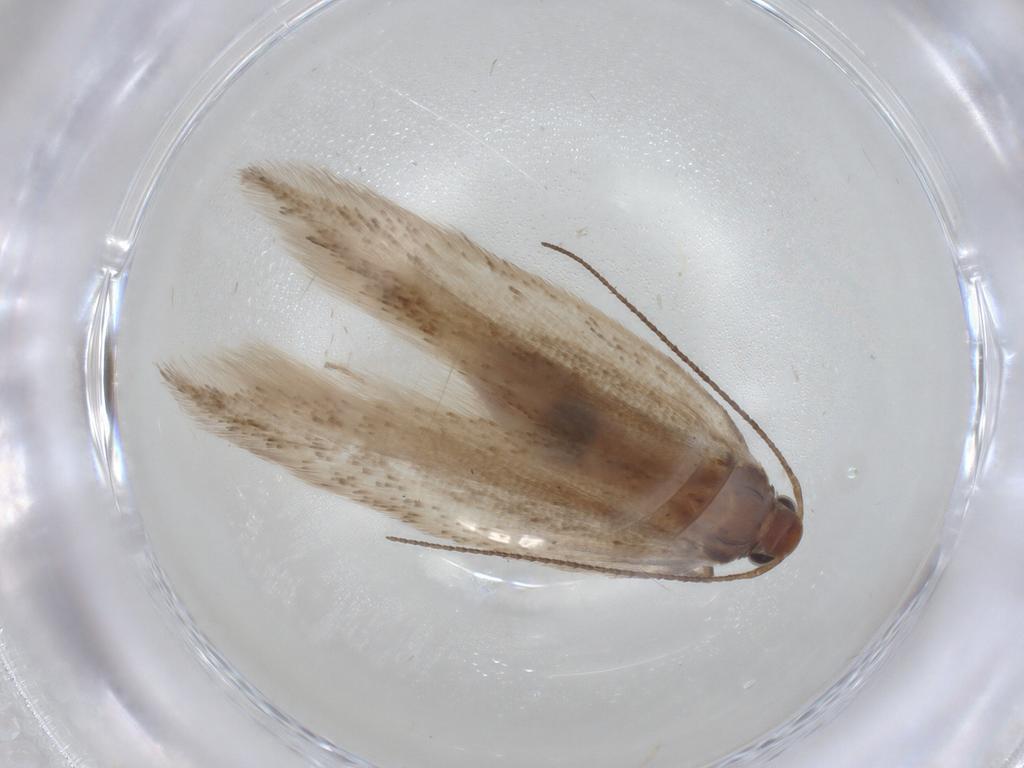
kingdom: Animalia
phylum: Arthropoda
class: Insecta
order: Lepidoptera
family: Gelechiidae
